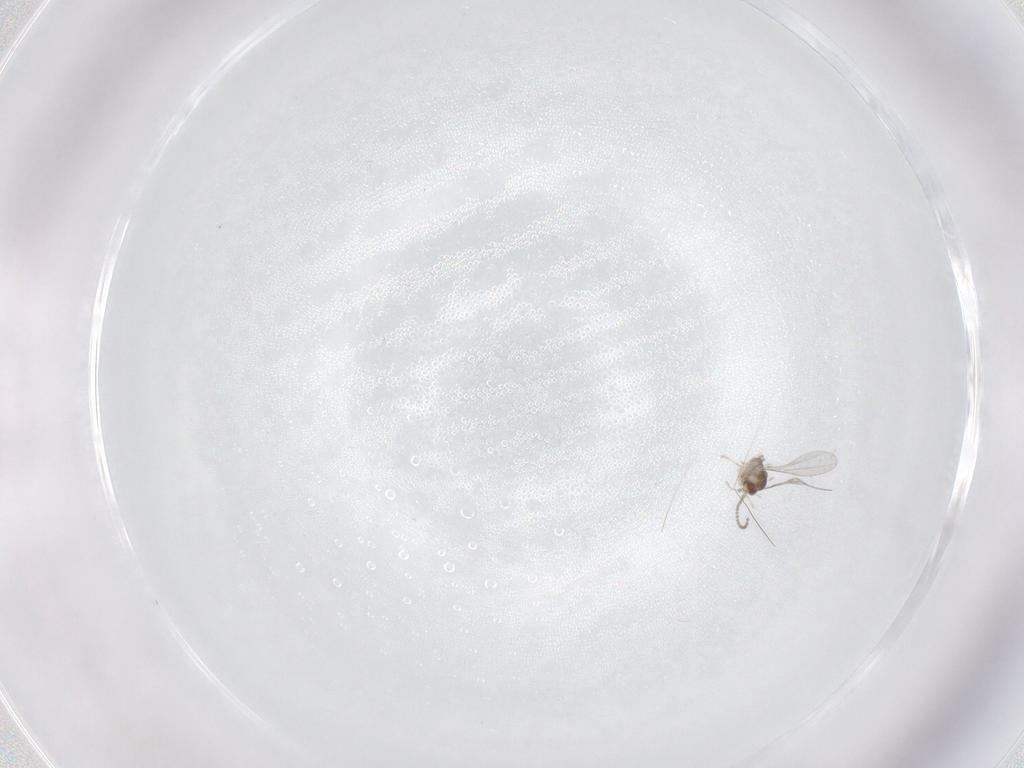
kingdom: Animalia
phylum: Arthropoda
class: Insecta
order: Diptera
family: Cecidomyiidae
